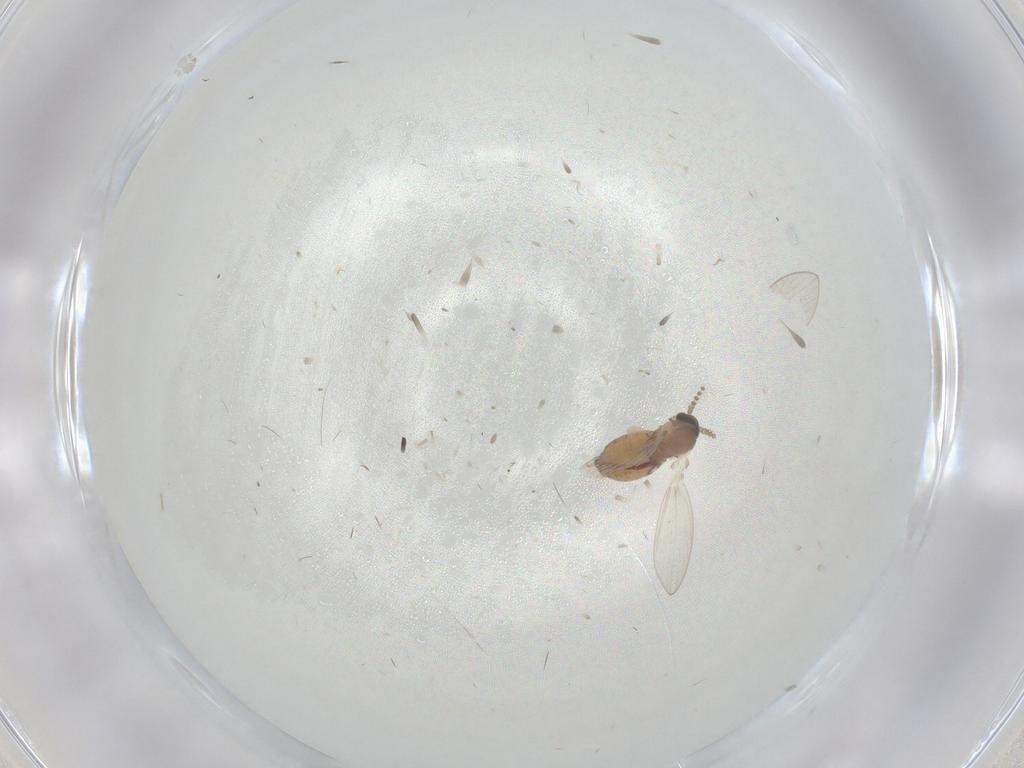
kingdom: Animalia
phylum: Arthropoda
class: Insecta
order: Diptera
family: Psychodidae
